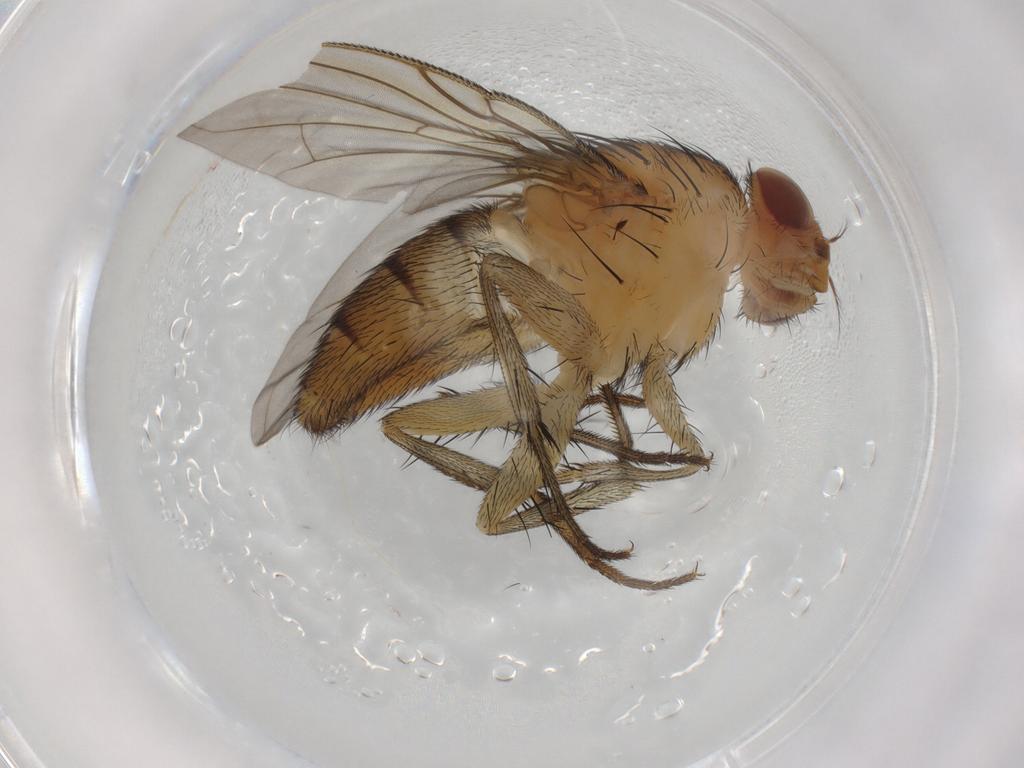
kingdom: Animalia
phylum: Arthropoda
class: Insecta
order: Diptera
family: Calliphoridae
